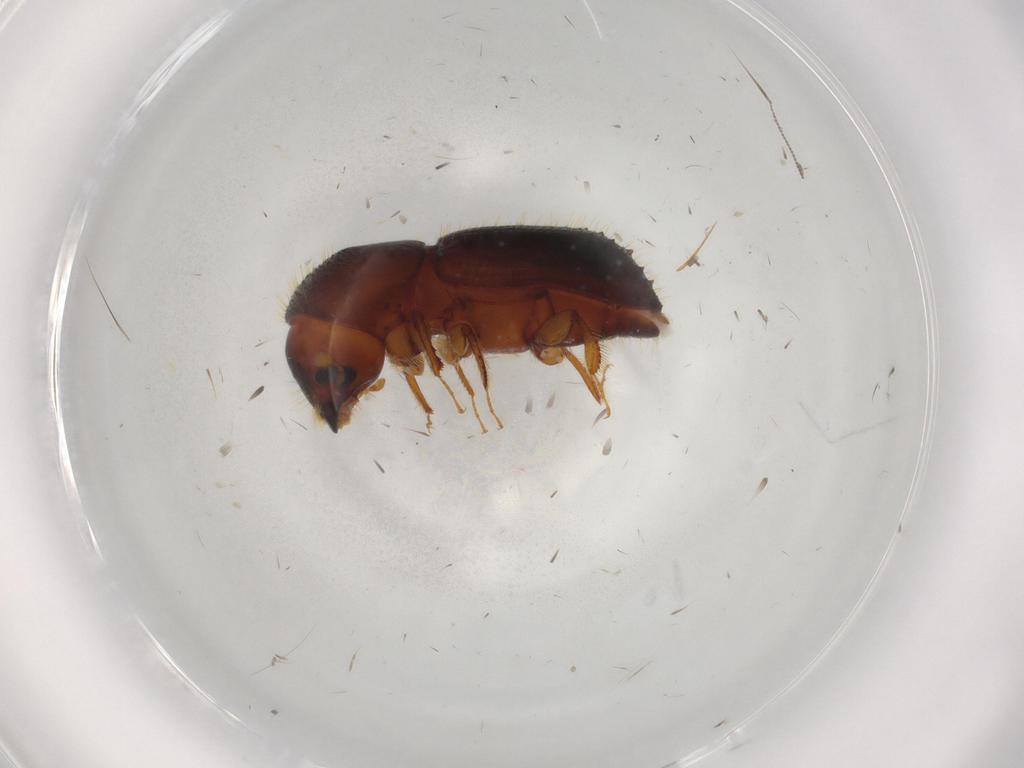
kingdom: Animalia
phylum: Arthropoda
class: Insecta
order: Coleoptera
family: Curculionidae
